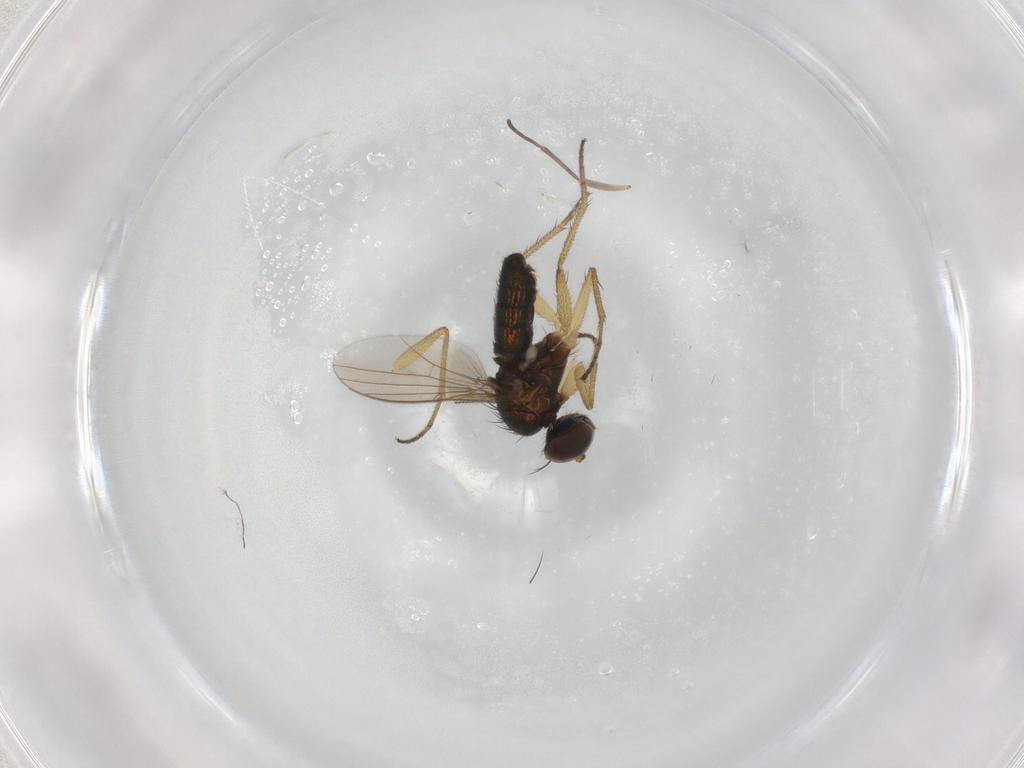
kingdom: Animalia
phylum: Arthropoda
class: Insecta
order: Diptera
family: Dolichopodidae
